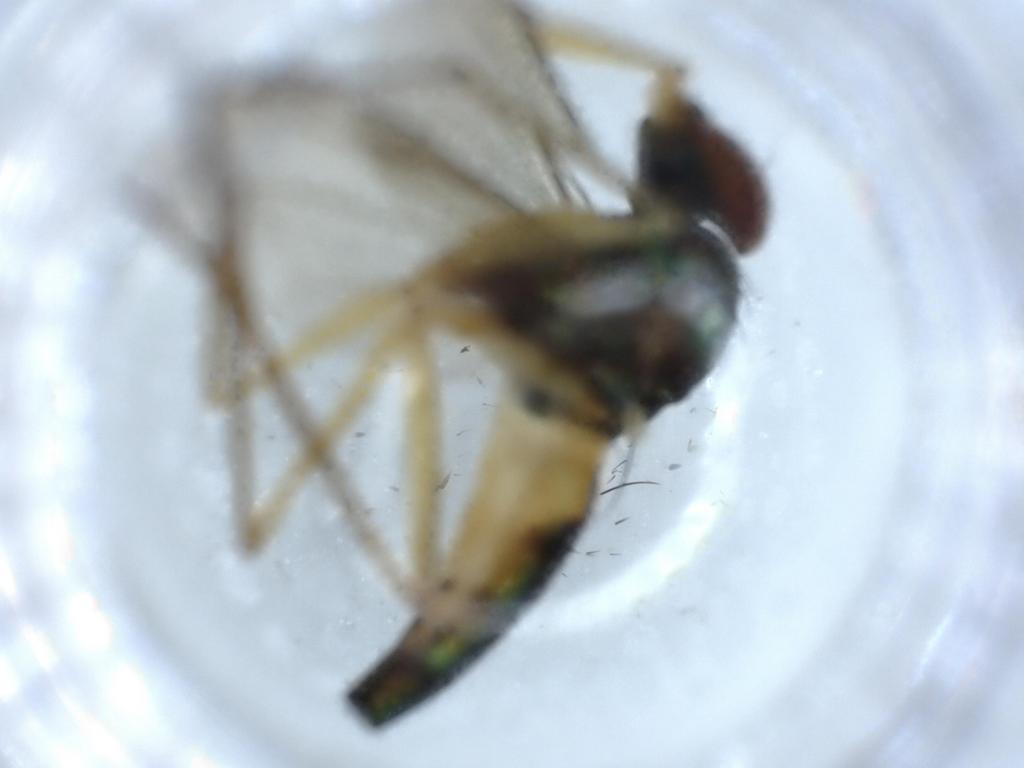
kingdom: Animalia
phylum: Arthropoda
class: Insecta
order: Diptera
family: Dolichopodidae
